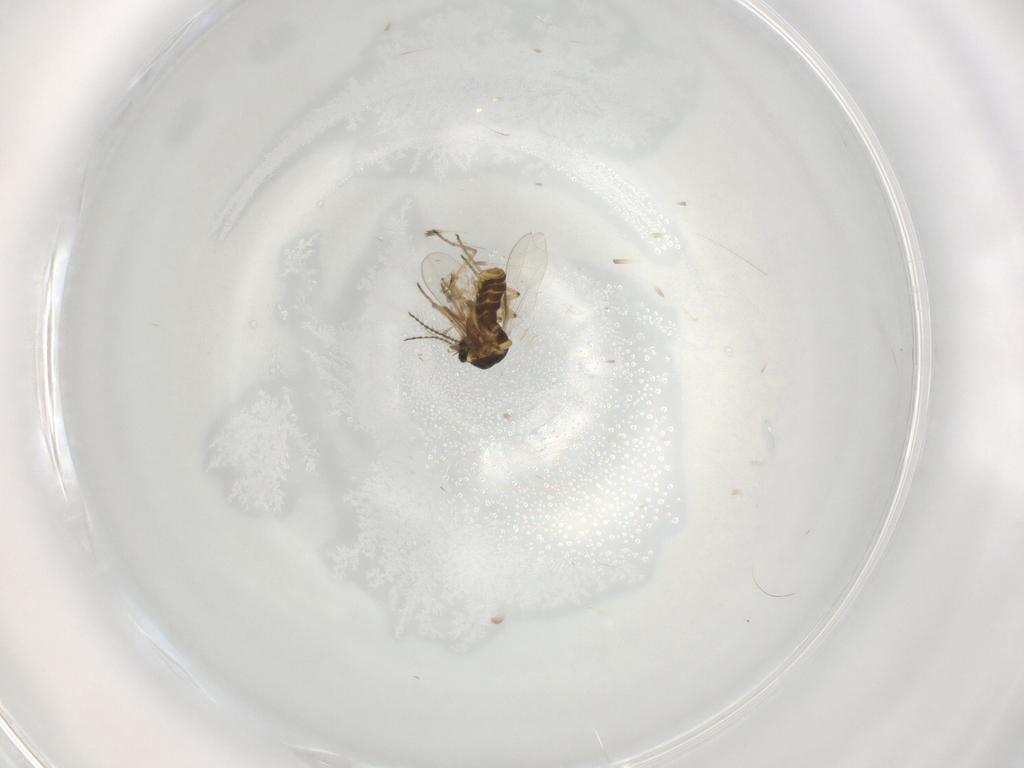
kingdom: Animalia
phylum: Arthropoda
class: Insecta
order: Diptera
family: Ceratopogonidae
